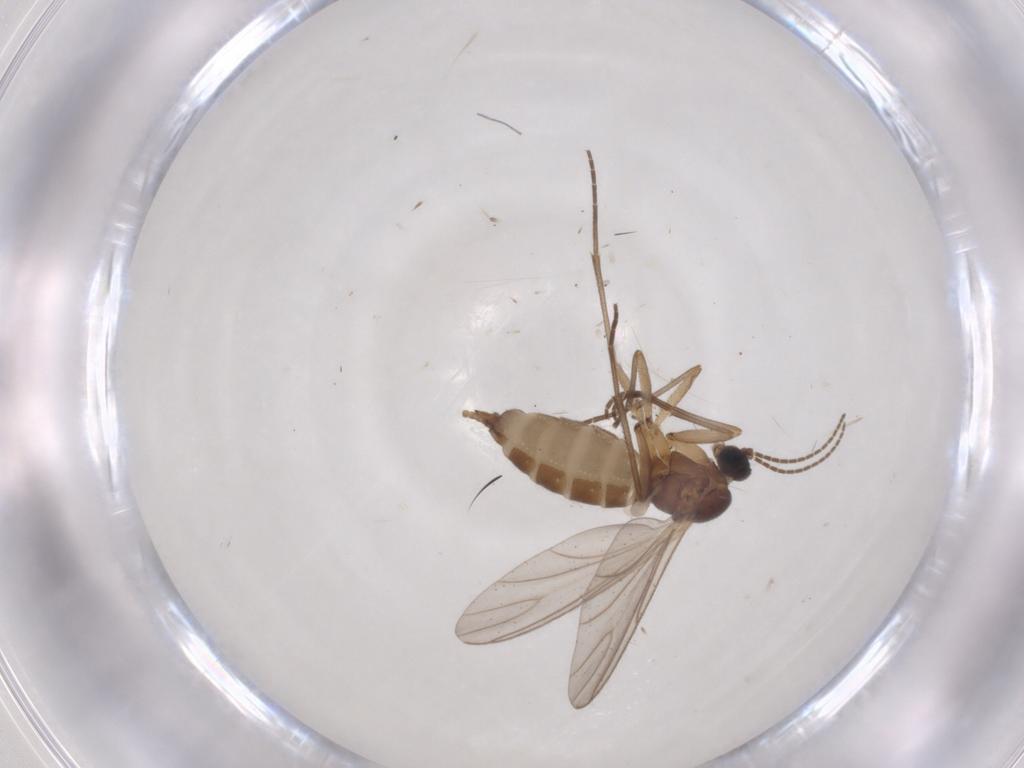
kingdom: Animalia
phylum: Arthropoda
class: Insecta
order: Diptera
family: Sciaridae
